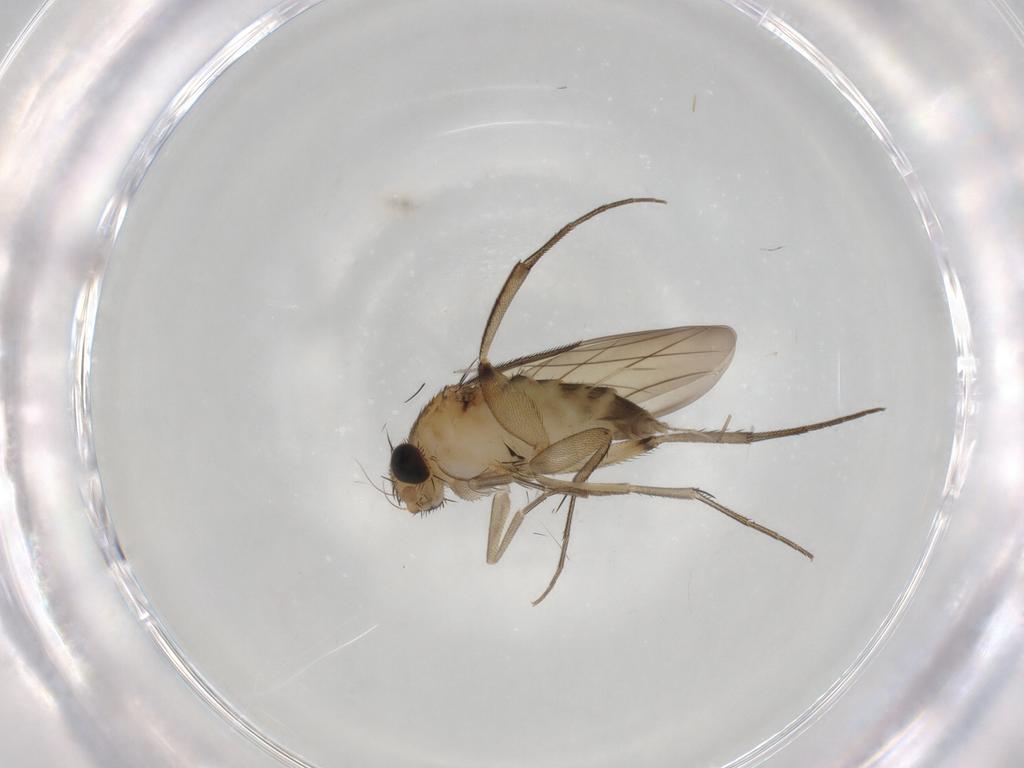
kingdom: Animalia
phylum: Arthropoda
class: Insecta
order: Diptera
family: Phoridae
